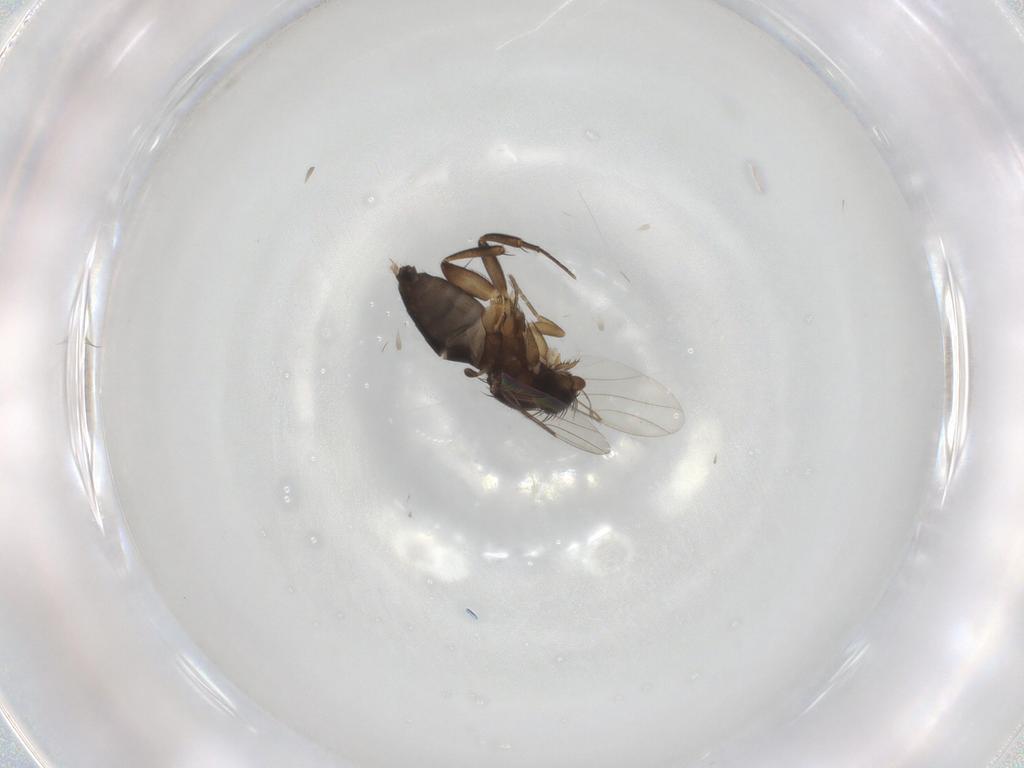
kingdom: Animalia
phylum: Arthropoda
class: Insecta
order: Diptera
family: Phoridae
